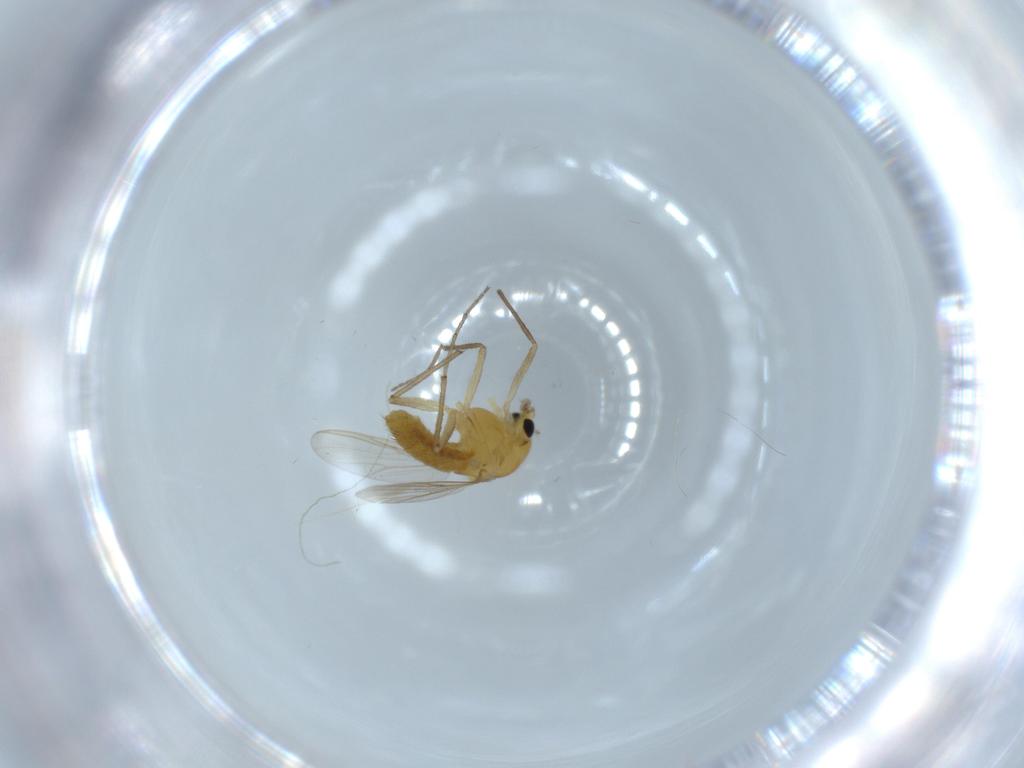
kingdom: Animalia
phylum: Arthropoda
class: Insecta
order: Diptera
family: Chironomidae
